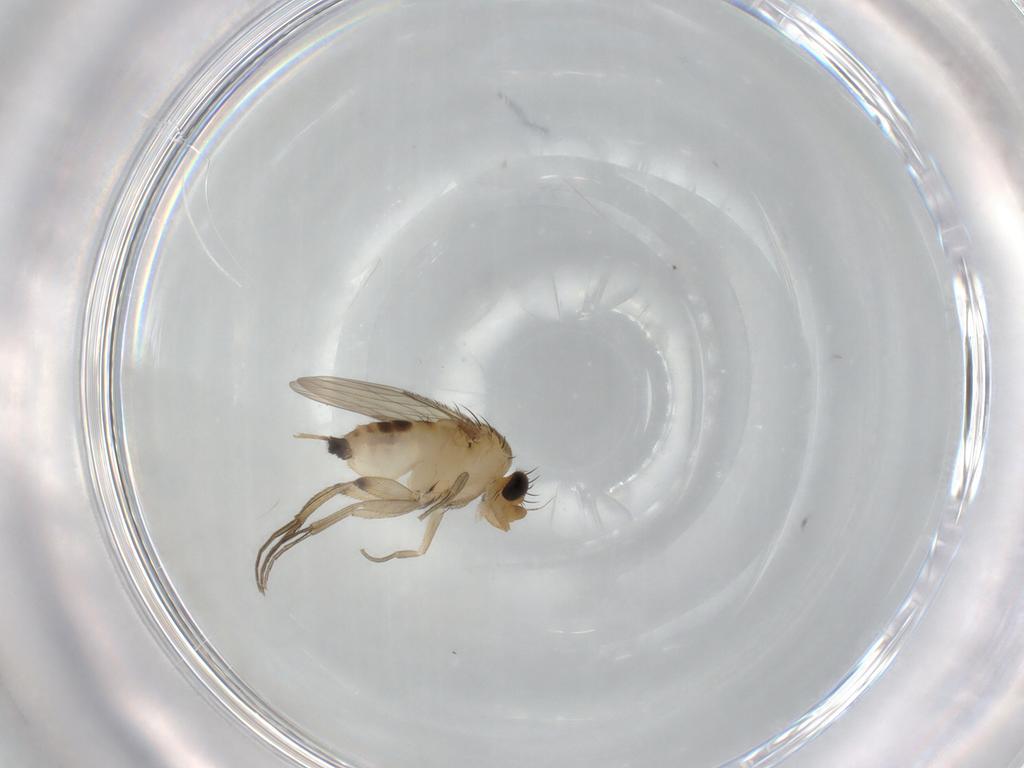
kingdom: Animalia
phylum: Arthropoda
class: Insecta
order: Diptera
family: Phoridae
